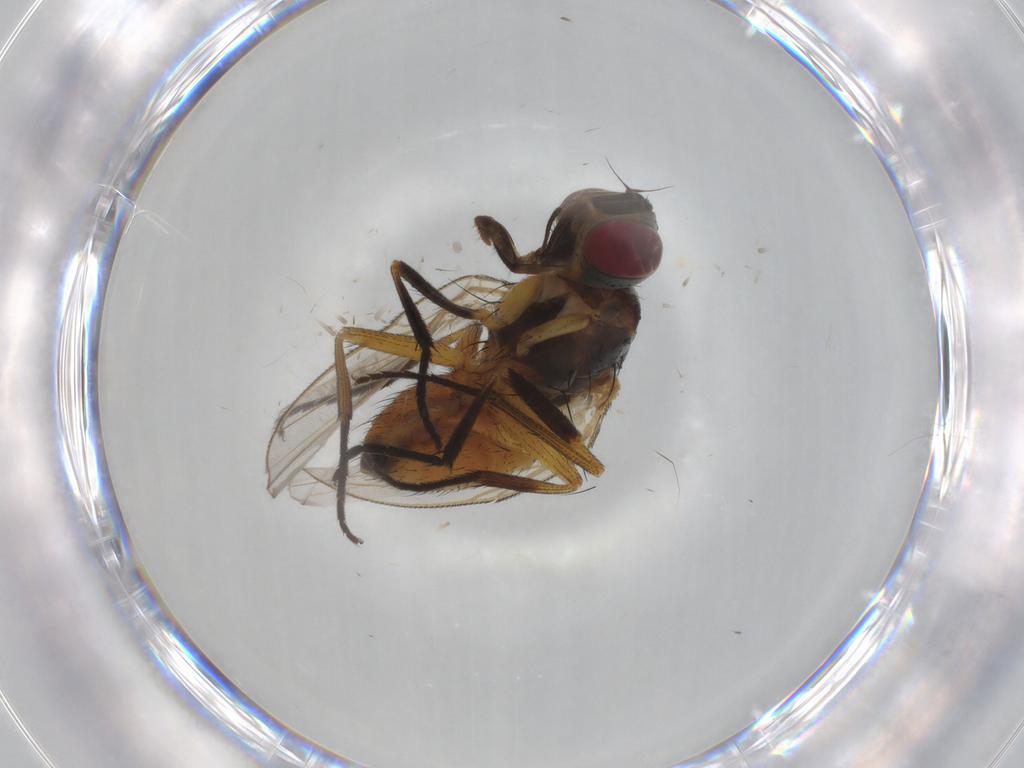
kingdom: Animalia
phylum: Arthropoda
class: Insecta
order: Diptera
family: Muscidae
